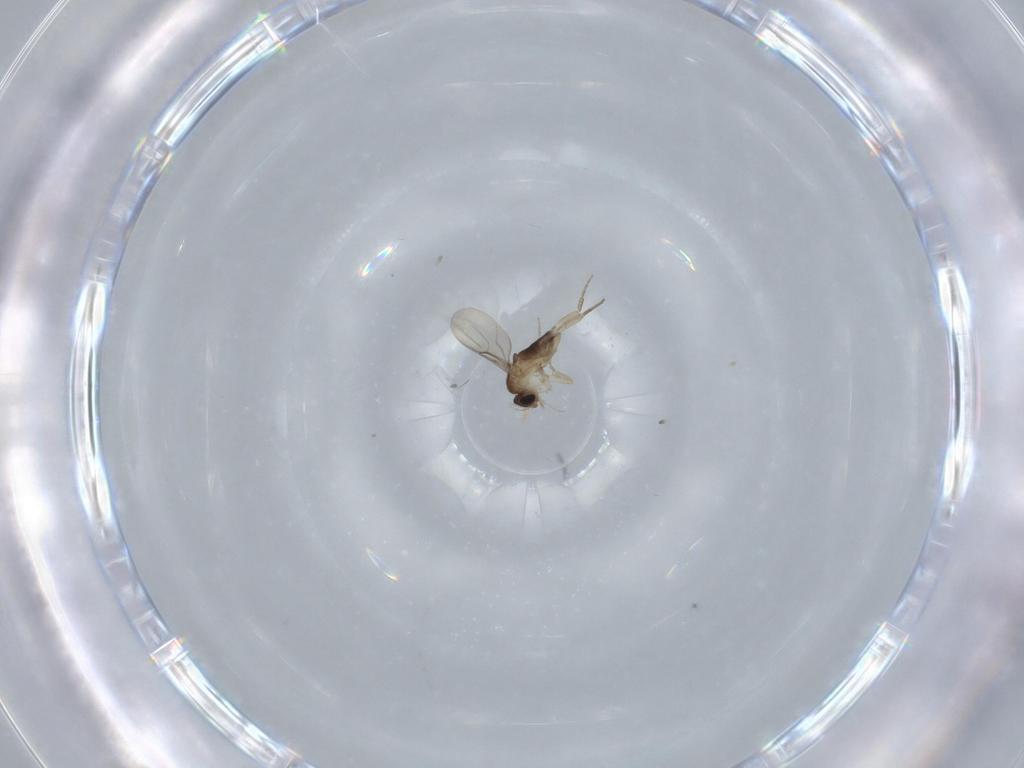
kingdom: Animalia
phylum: Arthropoda
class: Insecta
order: Diptera
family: Phoridae
